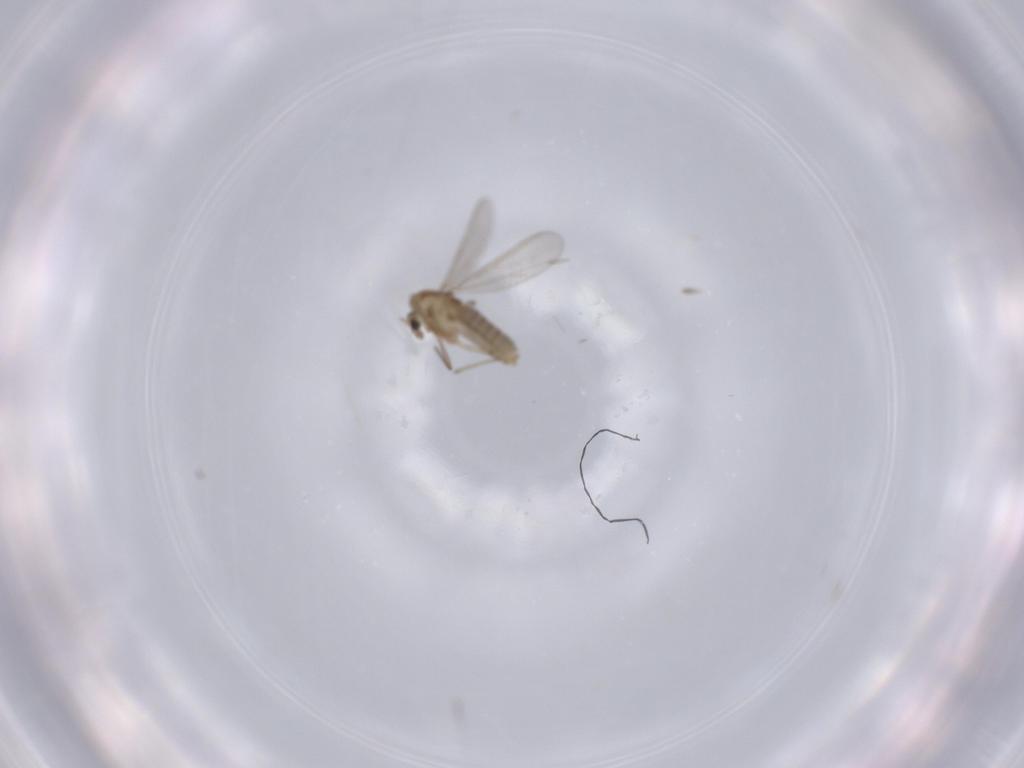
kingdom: Animalia
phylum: Arthropoda
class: Insecta
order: Diptera
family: Chironomidae
